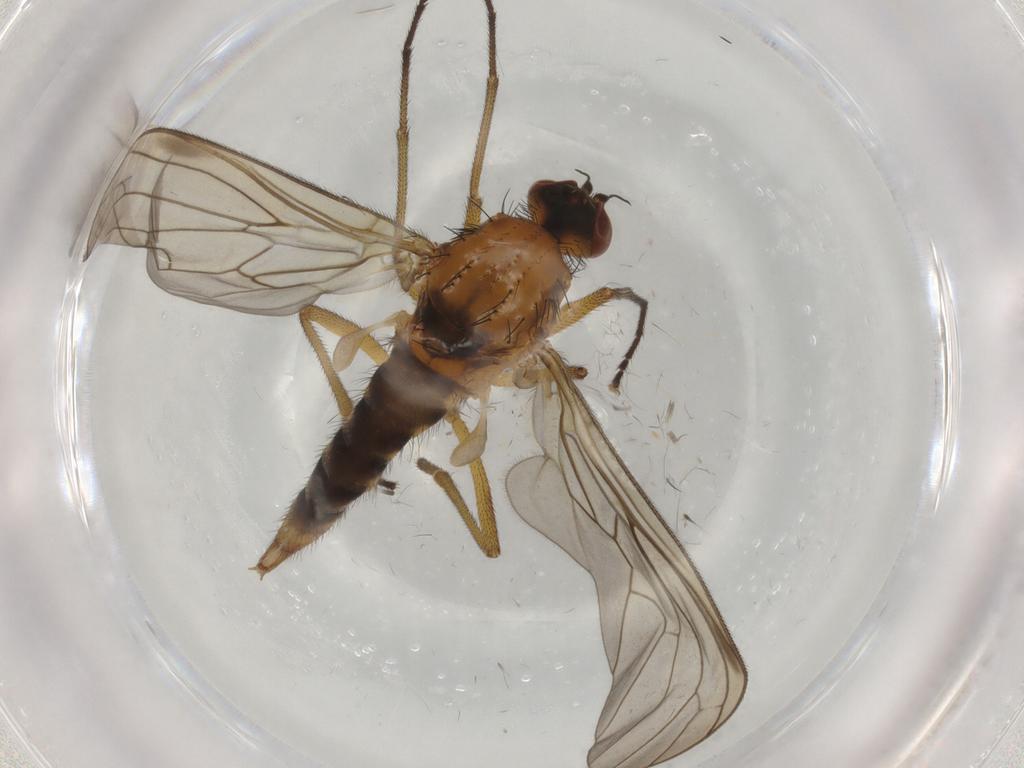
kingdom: Animalia
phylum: Arthropoda
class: Insecta
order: Diptera
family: Brachystomatidae
